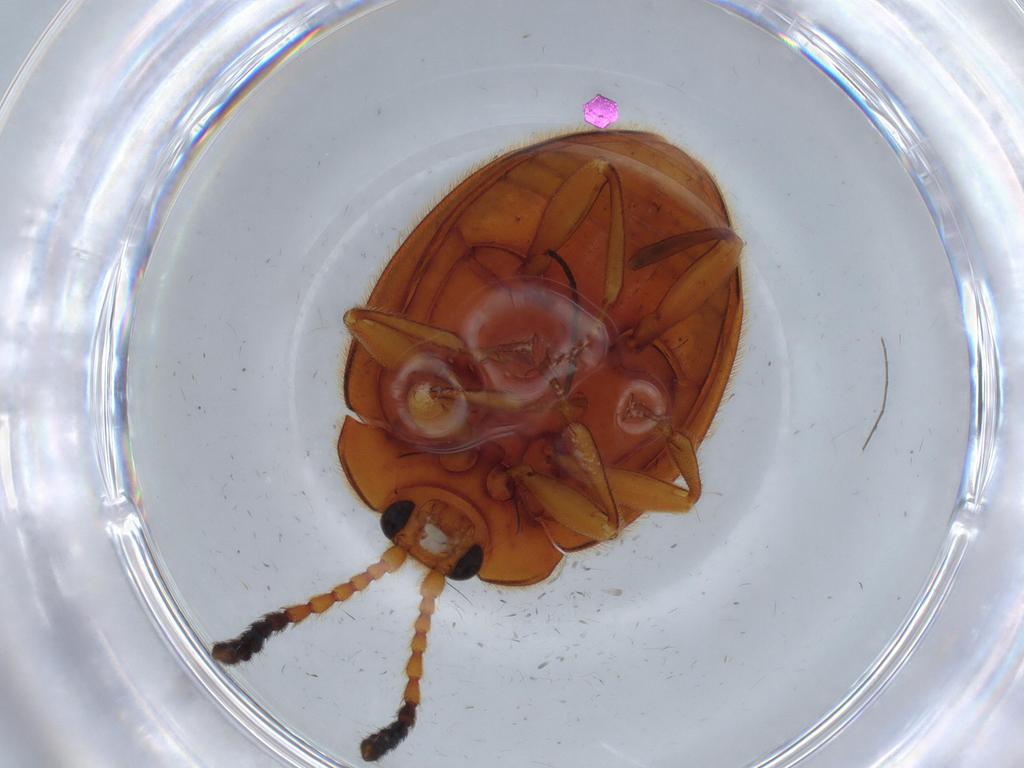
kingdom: Animalia
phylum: Arthropoda
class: Insecta
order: Coleoptera
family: Endomychidae
